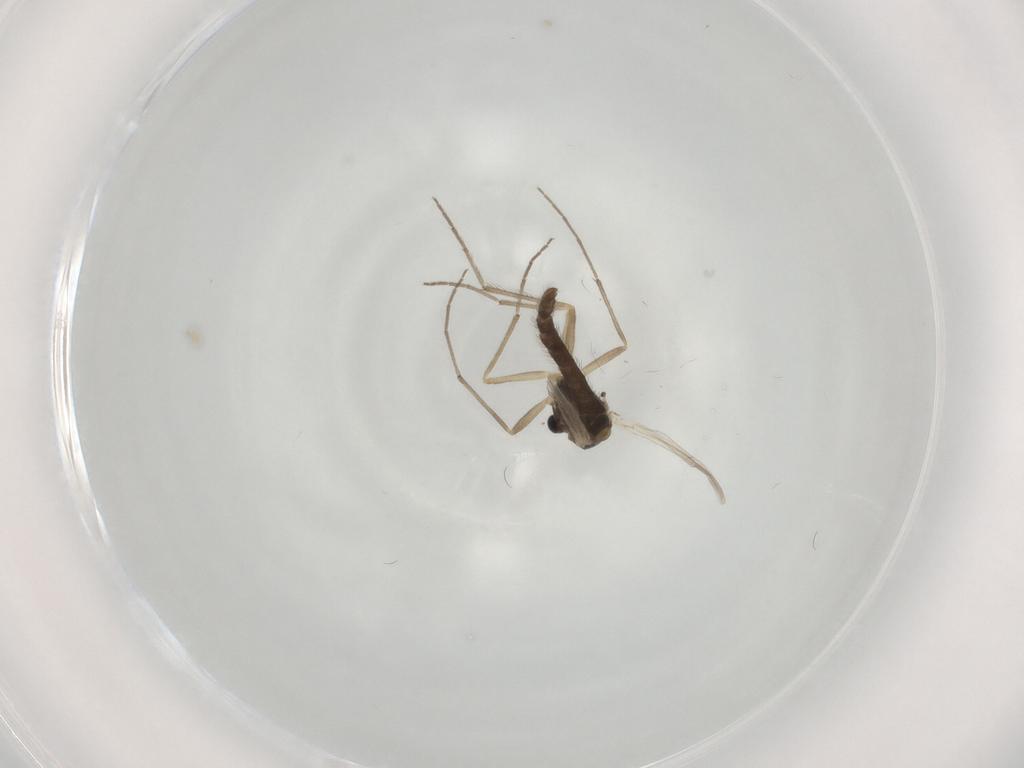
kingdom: Animalia
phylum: Arthropoda
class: Insecta
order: Diptera
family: Chironomidae
